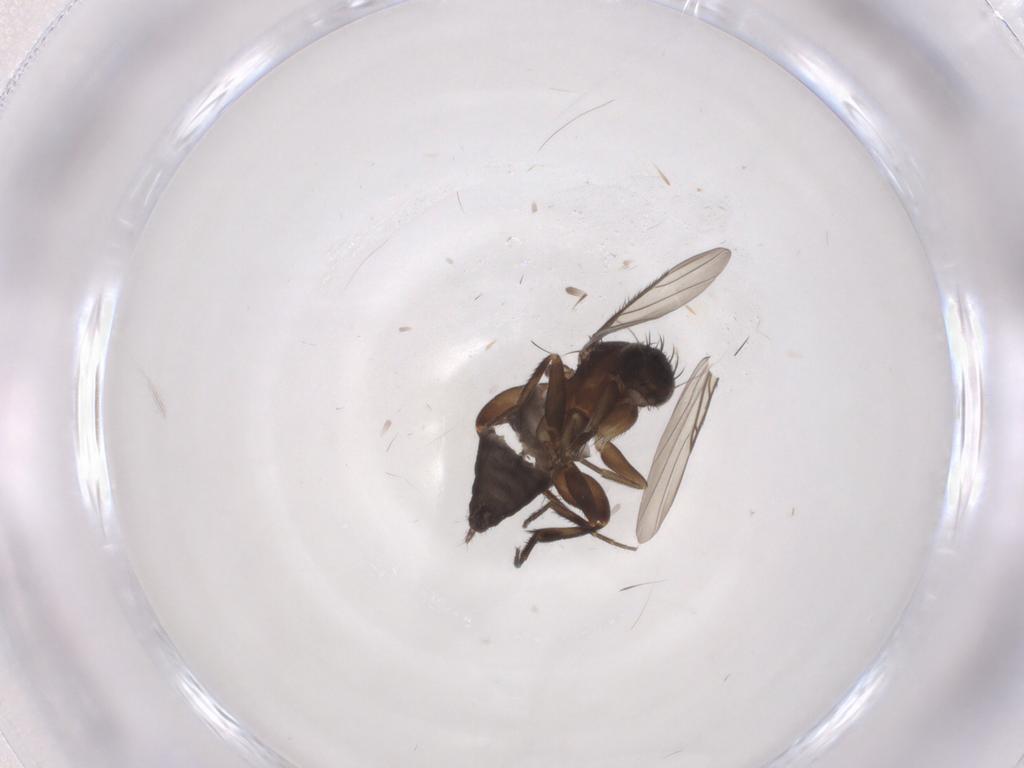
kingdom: Animalia
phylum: Arthropoda
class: Insecta
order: Diptera
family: Phoridae
